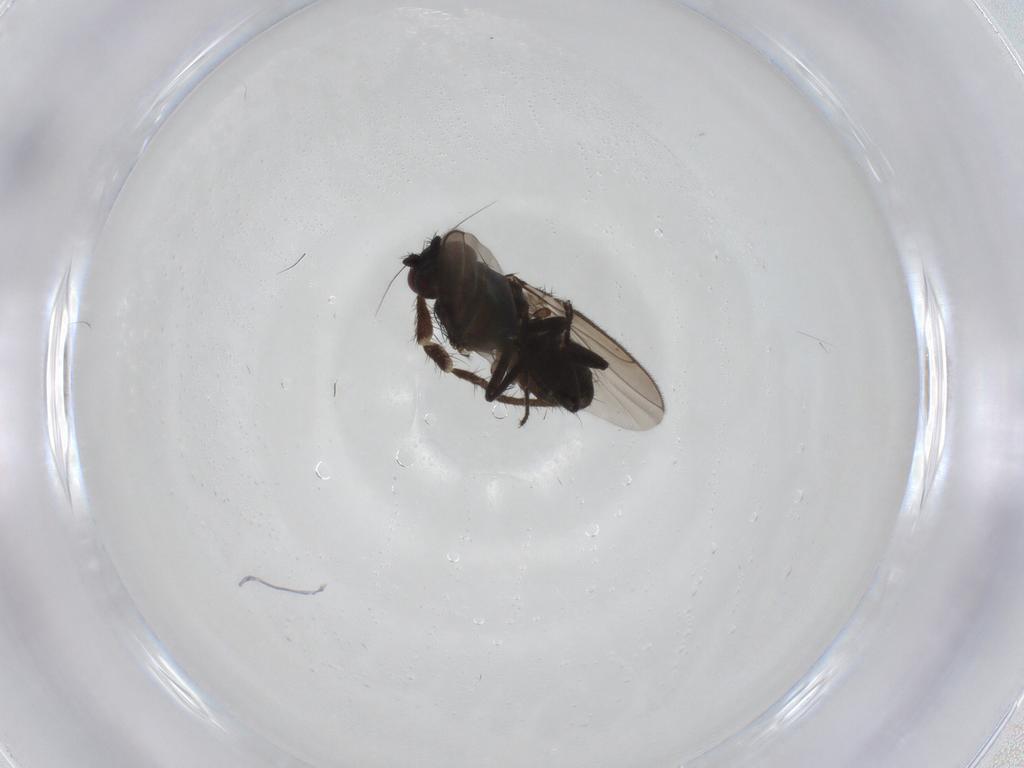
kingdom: Animalia
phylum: Arthropoda
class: Insecta
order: Diptera
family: Sphaeroceridae
